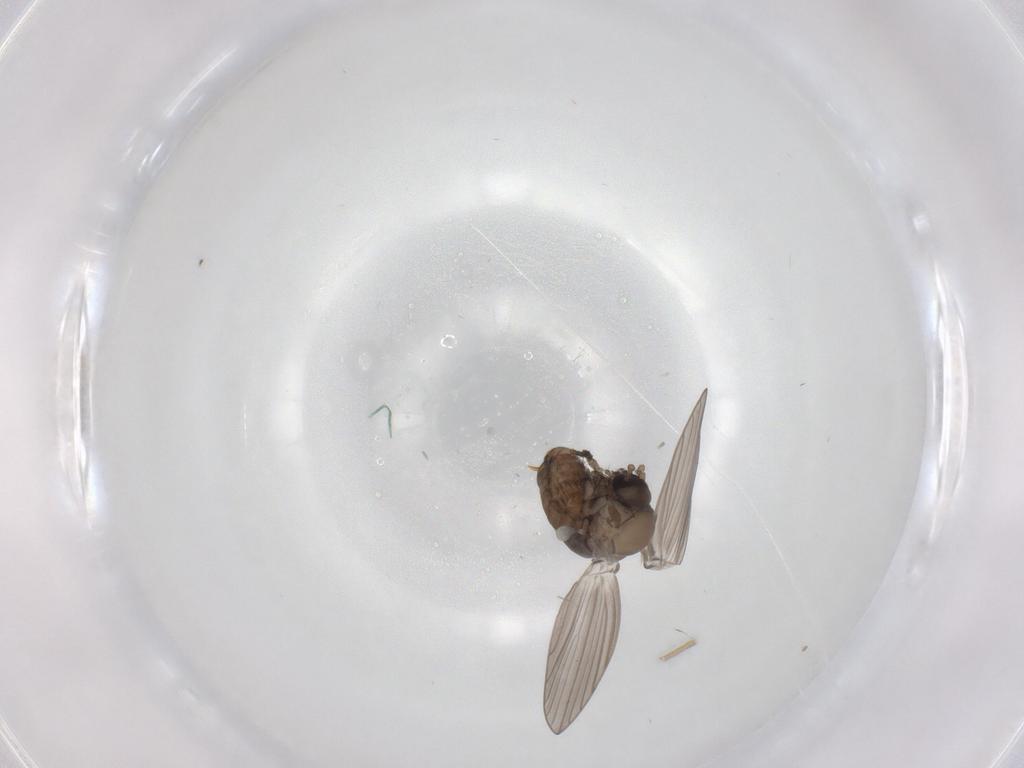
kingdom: Animalia
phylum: Arthropoda
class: Insecta
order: Diptera
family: Psychodidae
